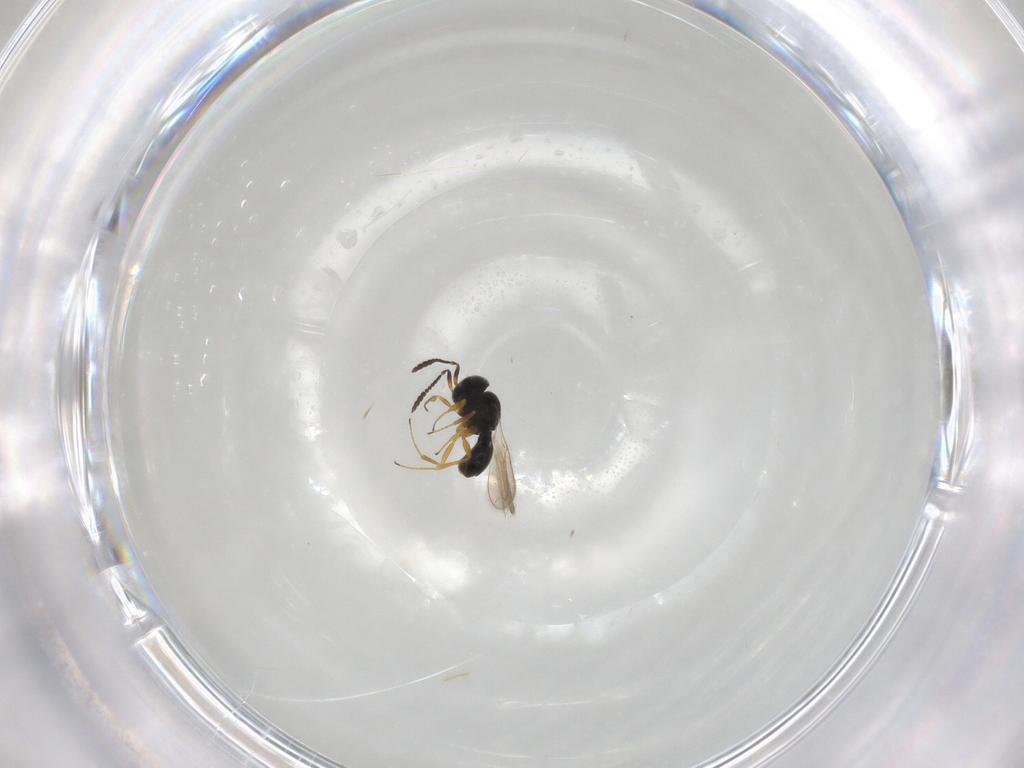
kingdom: Animalia
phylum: Arthropoda
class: Insecta
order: Hymenoptera
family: Scelionidae
